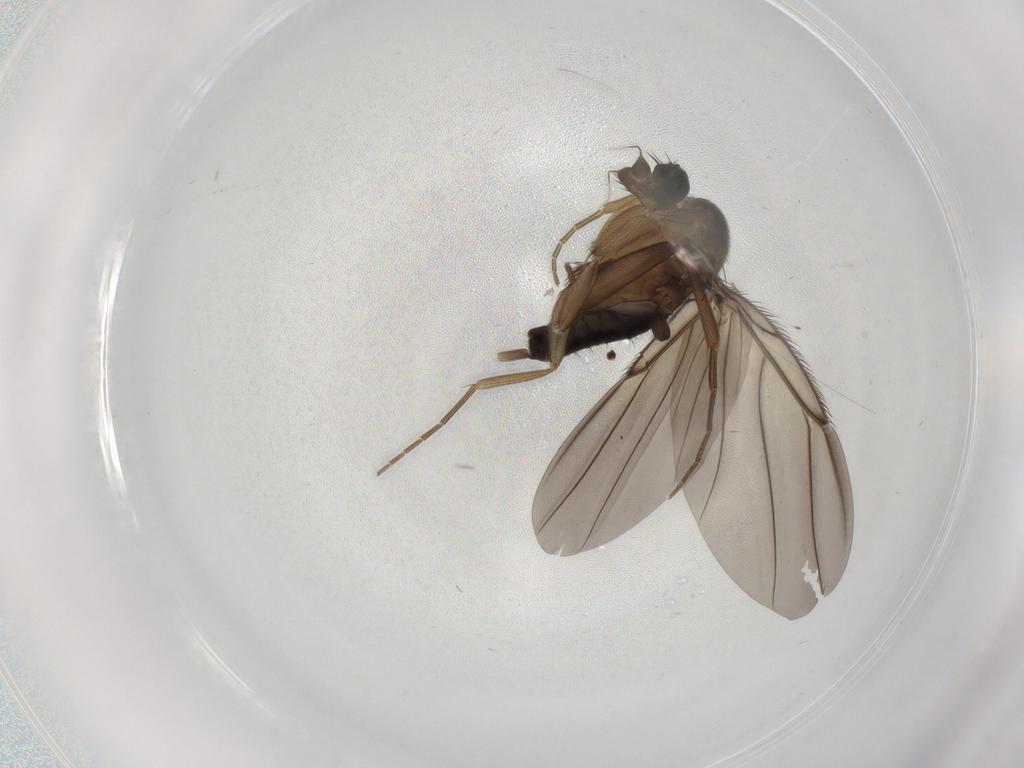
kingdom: Animalia
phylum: Arthropoda
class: Insecta
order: Diptera
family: Phoridae
